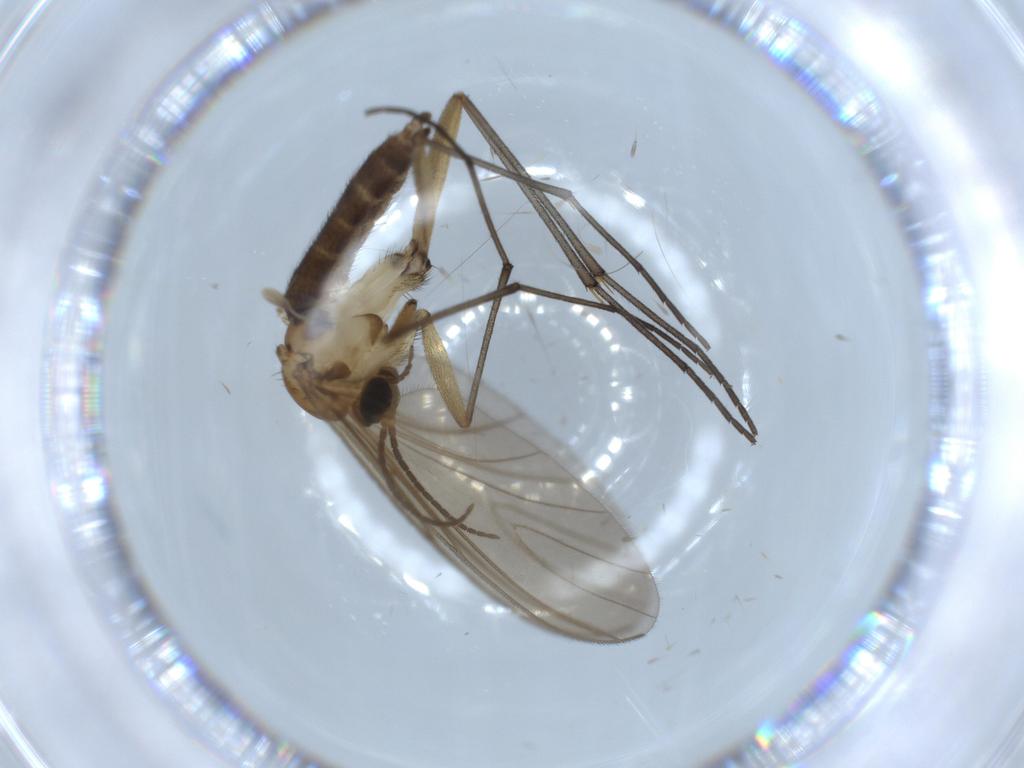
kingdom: Animalia
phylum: Arthropoda
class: Insecta
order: Diptera
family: Sciaridae
